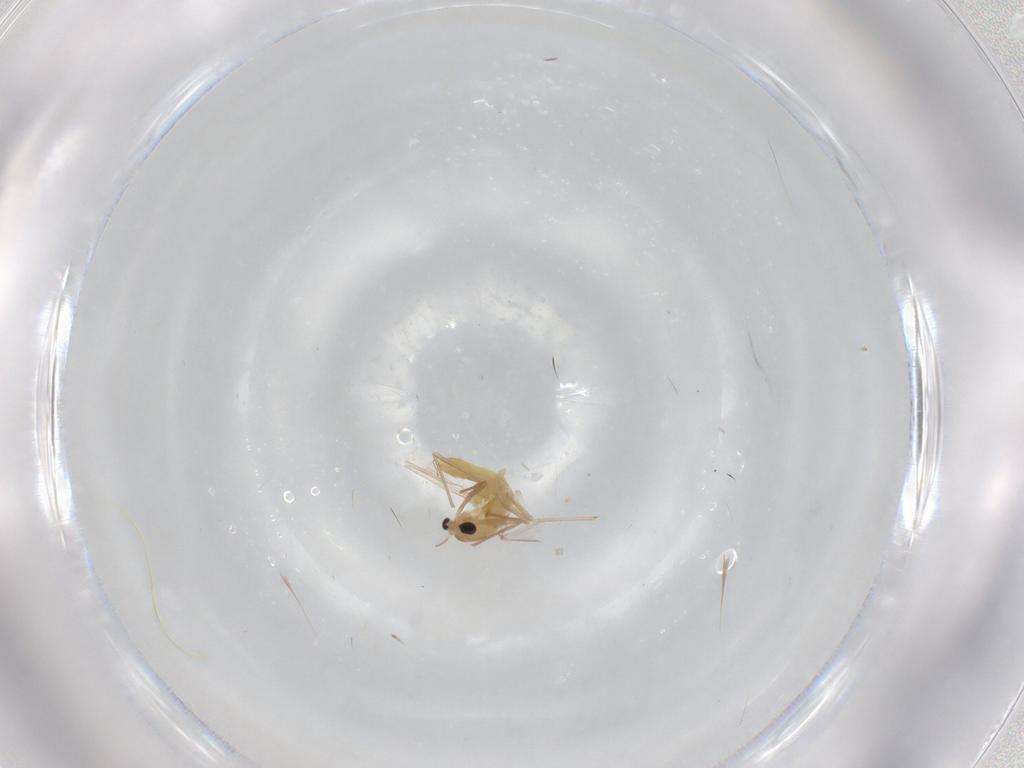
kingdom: Animalia
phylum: Arthropoda
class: Insecta
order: Diptera
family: Chironomidae
